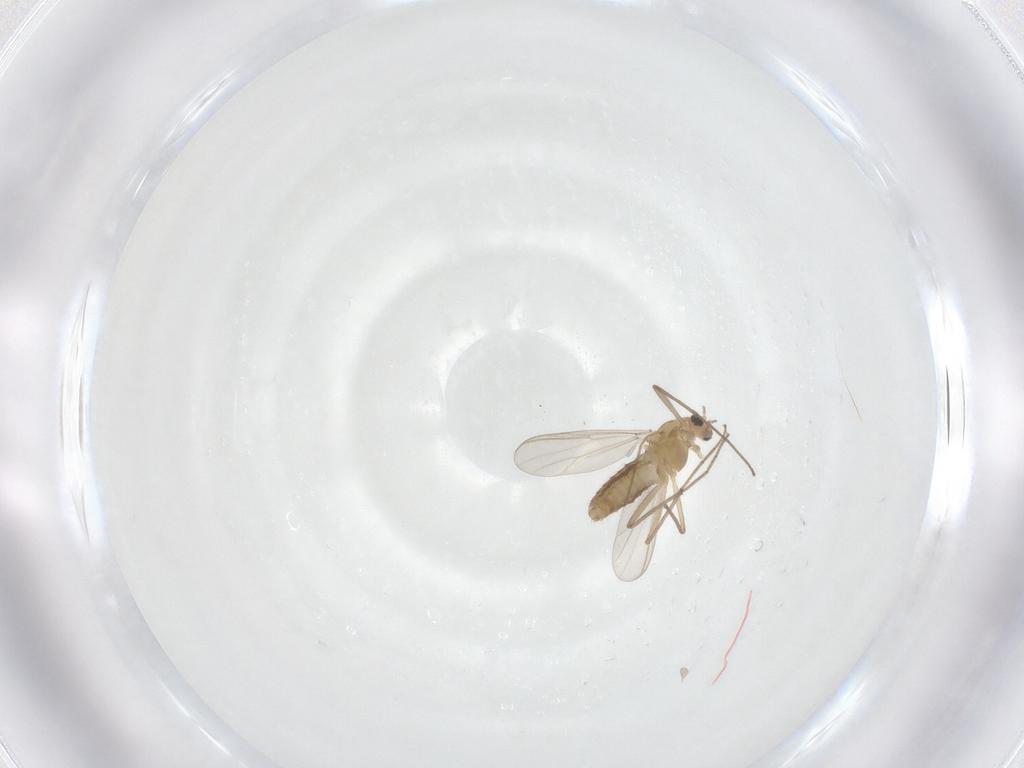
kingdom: Animalia
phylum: Arthropoda
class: Insecta
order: Diptera
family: Chironomidae
